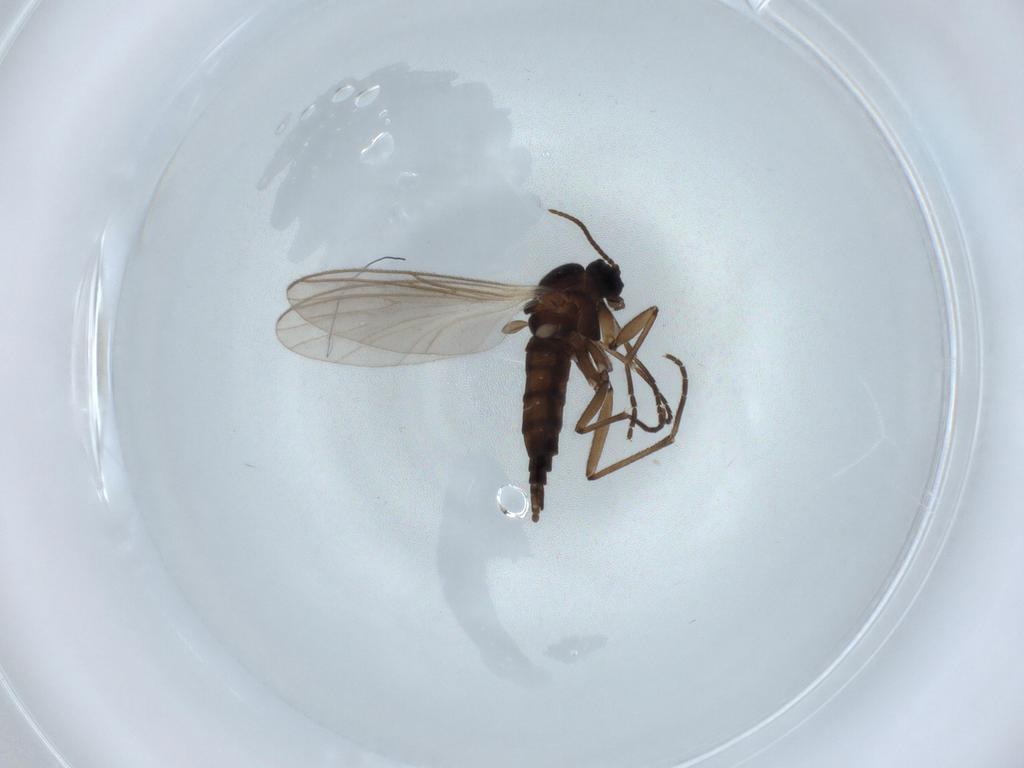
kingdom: Animalia
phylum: Arthropoda
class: Insecta
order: Diptera
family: Sciaridae
